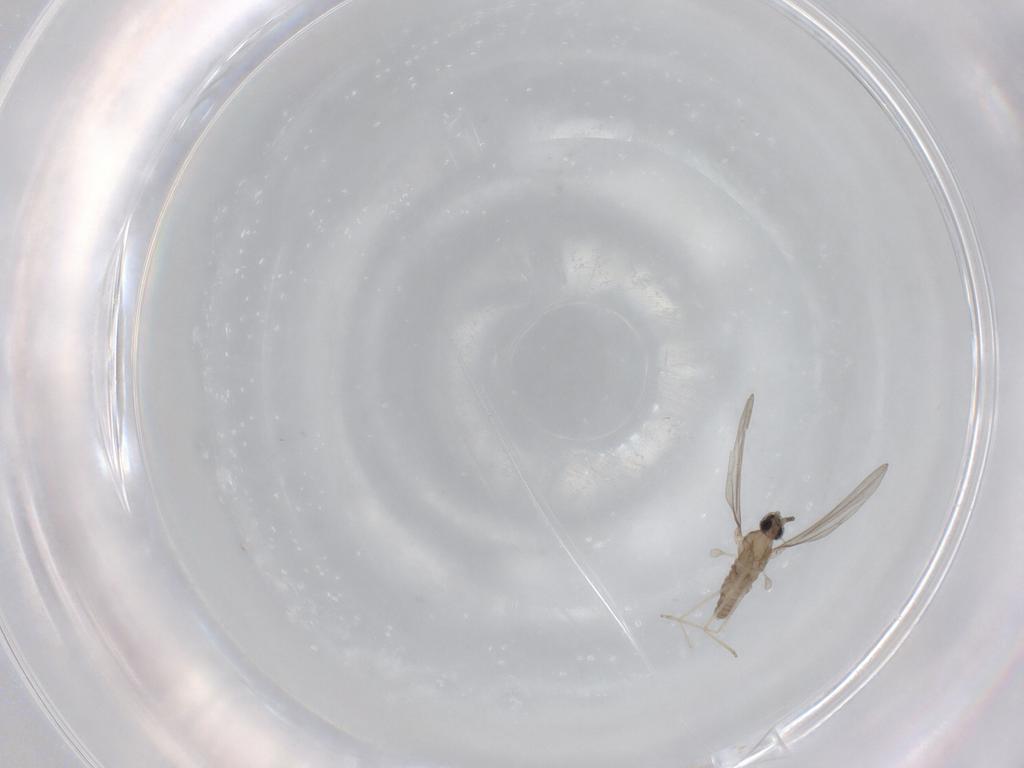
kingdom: Animalia
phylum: Arthropoda
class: Insecta
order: Diptera
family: Cecidomyiidae
